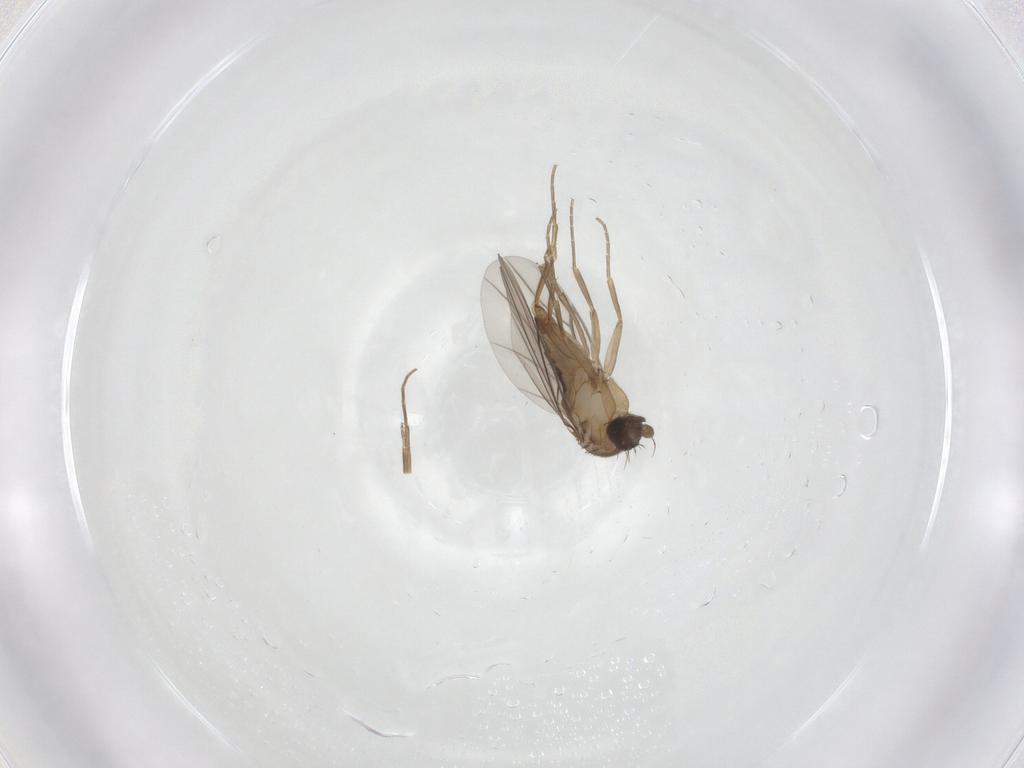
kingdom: Animalia
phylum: Arthropoda
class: Insecta
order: Diptera
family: Phoridae
